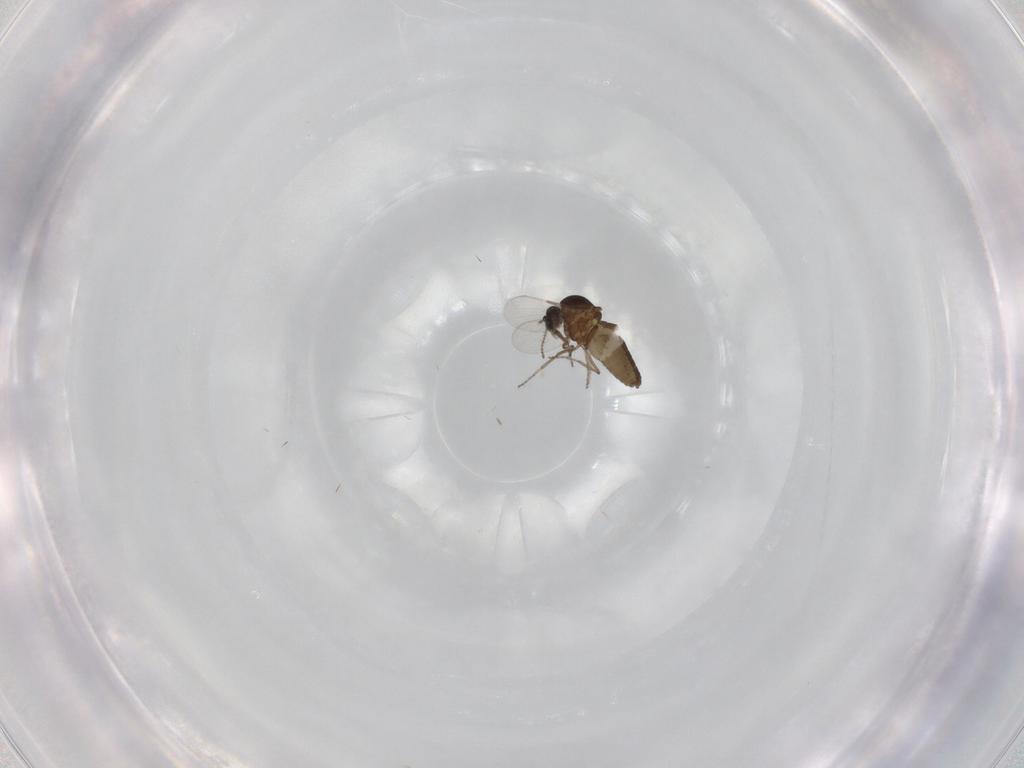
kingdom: Animalia
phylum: Arthropoda
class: Insecta
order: Diptera
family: Ceratopogonidae
